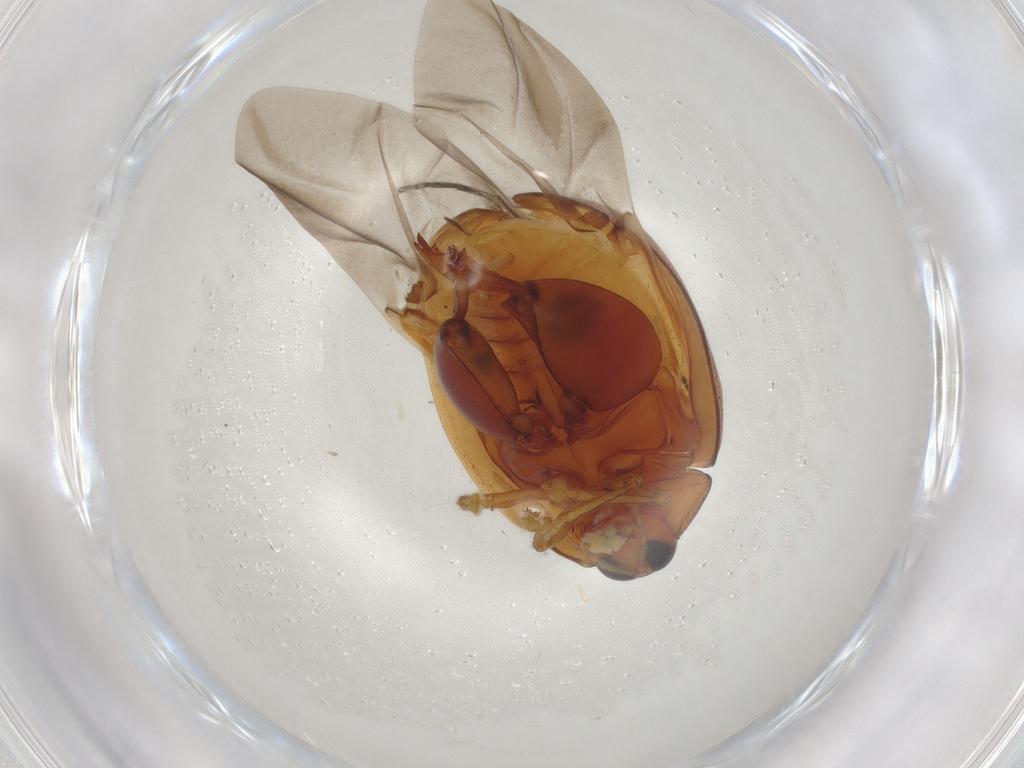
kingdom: Animalia
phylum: Arthropoda
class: Insecta
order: Coleoptera
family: Chrysomelidae
